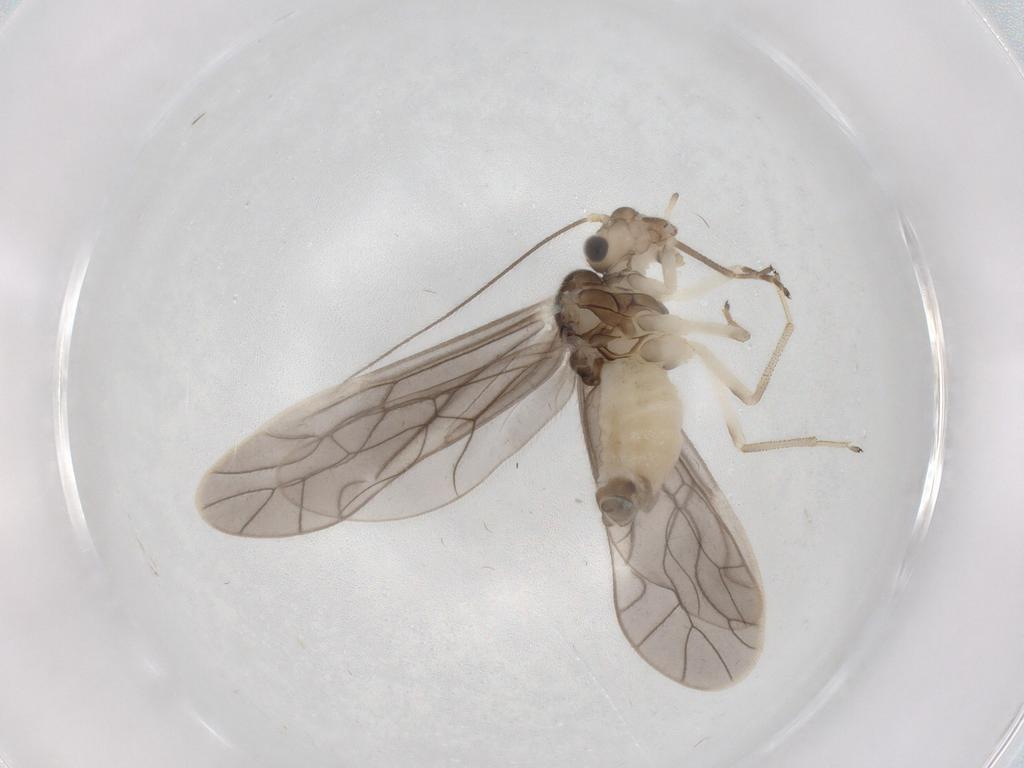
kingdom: Animalia
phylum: Arthropoda
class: Insecta
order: Psocodea
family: Caeciliusidae
